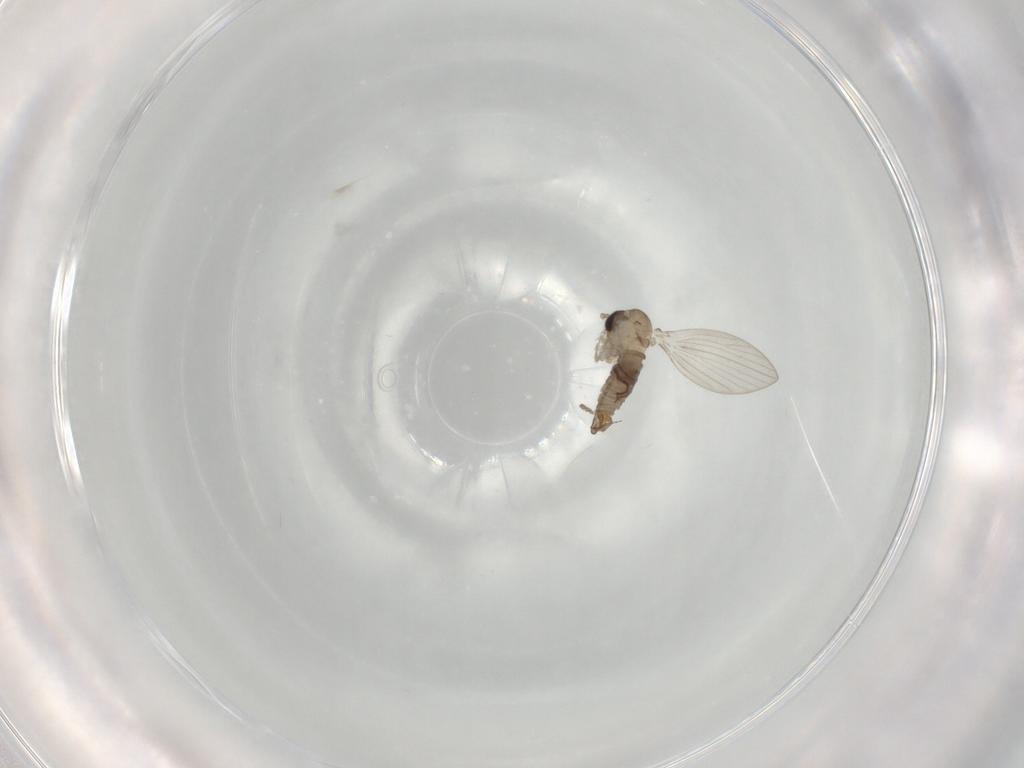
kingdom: Animalia
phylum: Arthropoda
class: Insecta
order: Diptera
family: Psychodidae
